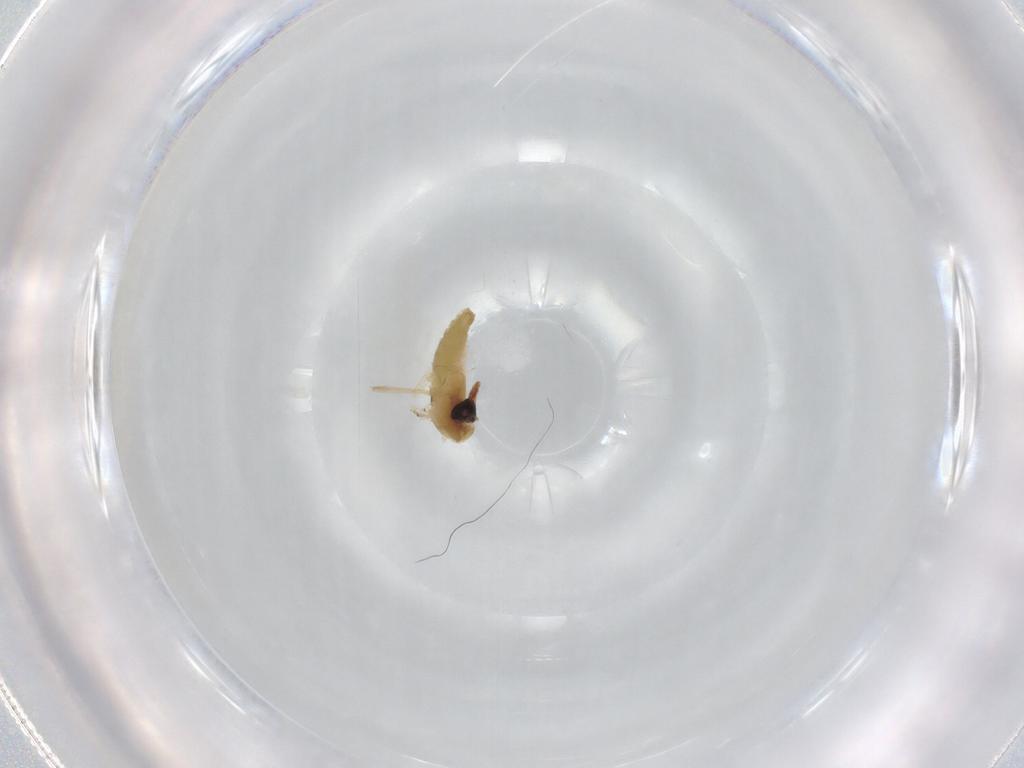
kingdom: Animalia
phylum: Arthropoda
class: Insecta
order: Diptera
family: Chironomidae
